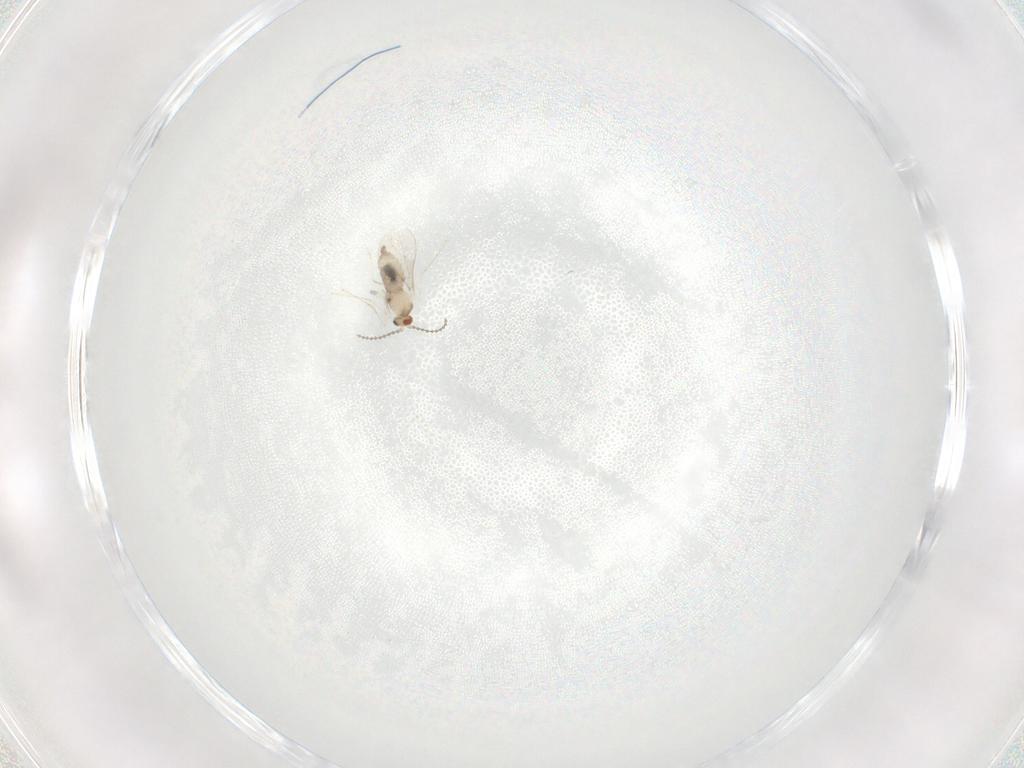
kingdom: Animalia
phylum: Arthropoda
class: Insecta
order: Diptera
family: Cecidomyiidae
